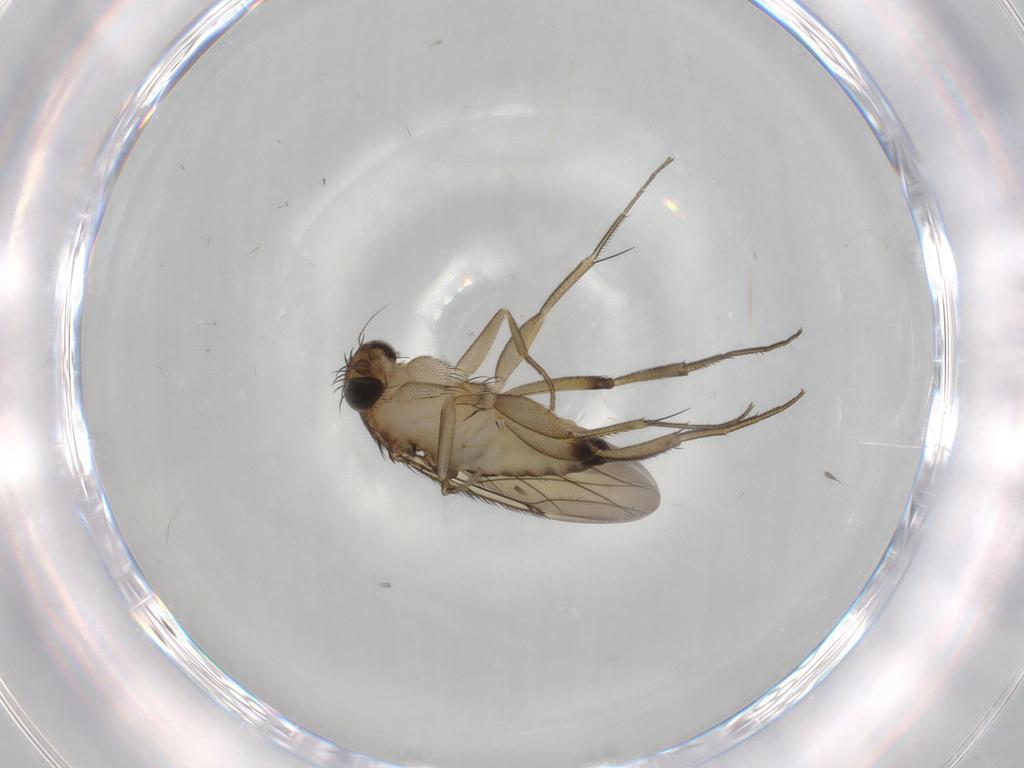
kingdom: Animalia
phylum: Arthropoda
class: Insecta
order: Diptera
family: Phoridae
